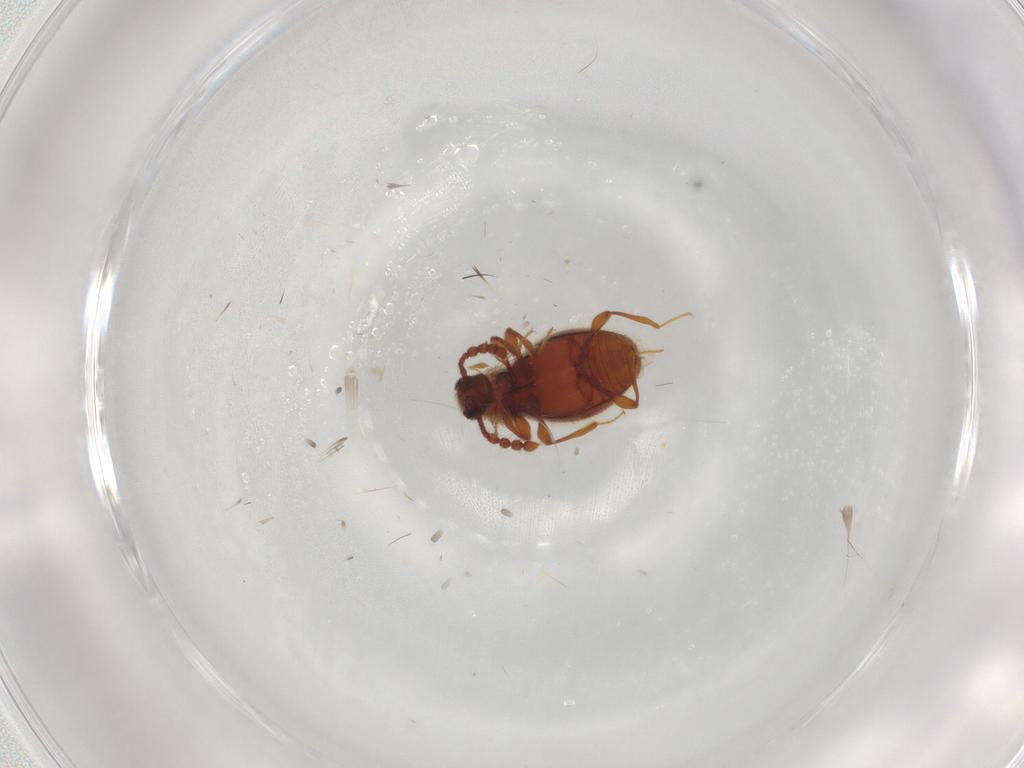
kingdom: Animalia
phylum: Arthropoda
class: Insecta
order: Coleoptera
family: Staphylinidae
